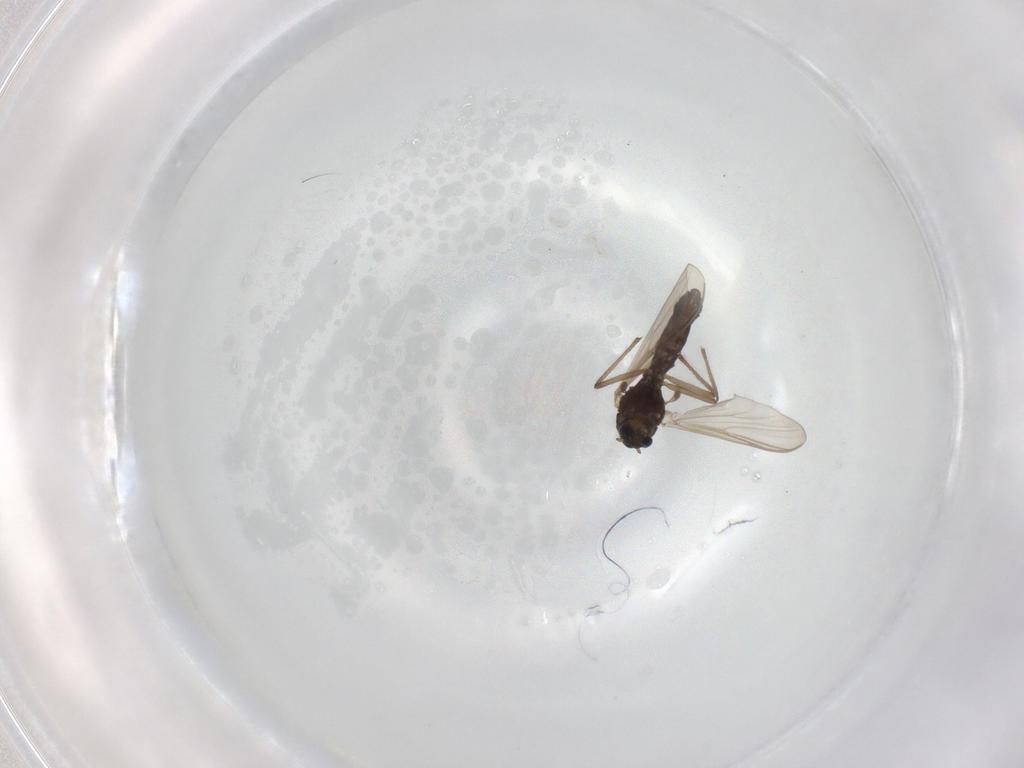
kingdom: Animalia
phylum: Arthropoda
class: Insecta
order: Diptera
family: Chironomidae
